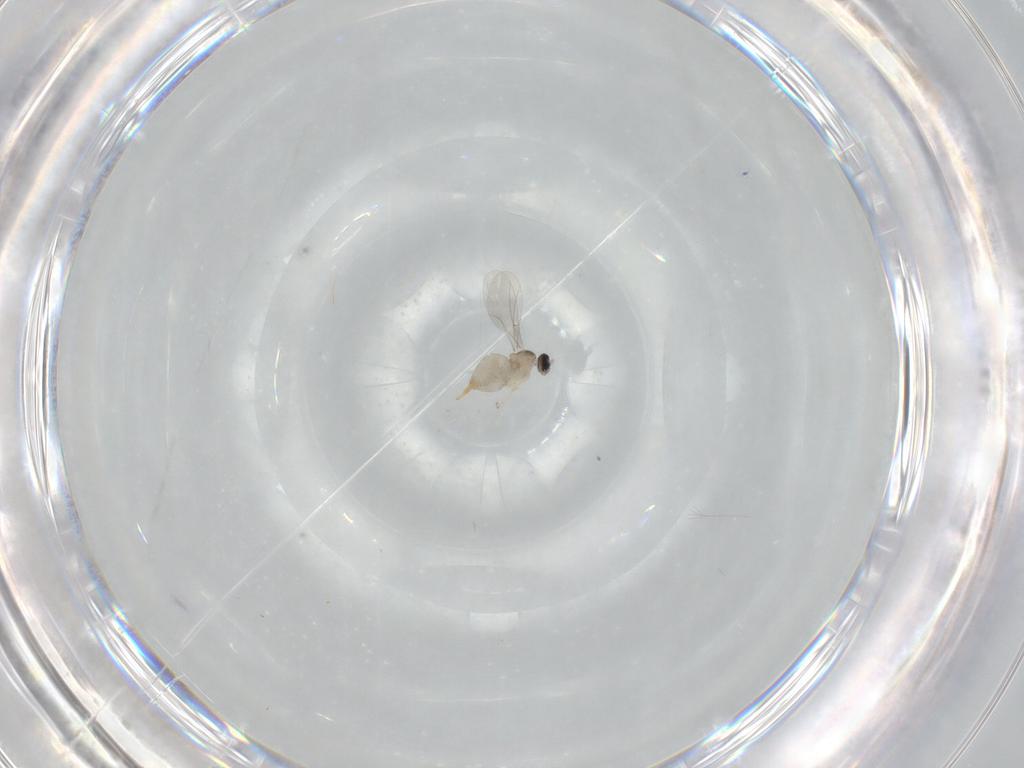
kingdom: Animalia
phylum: Arthropoda
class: Insecta
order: Diptera
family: Cecidomyiidae
